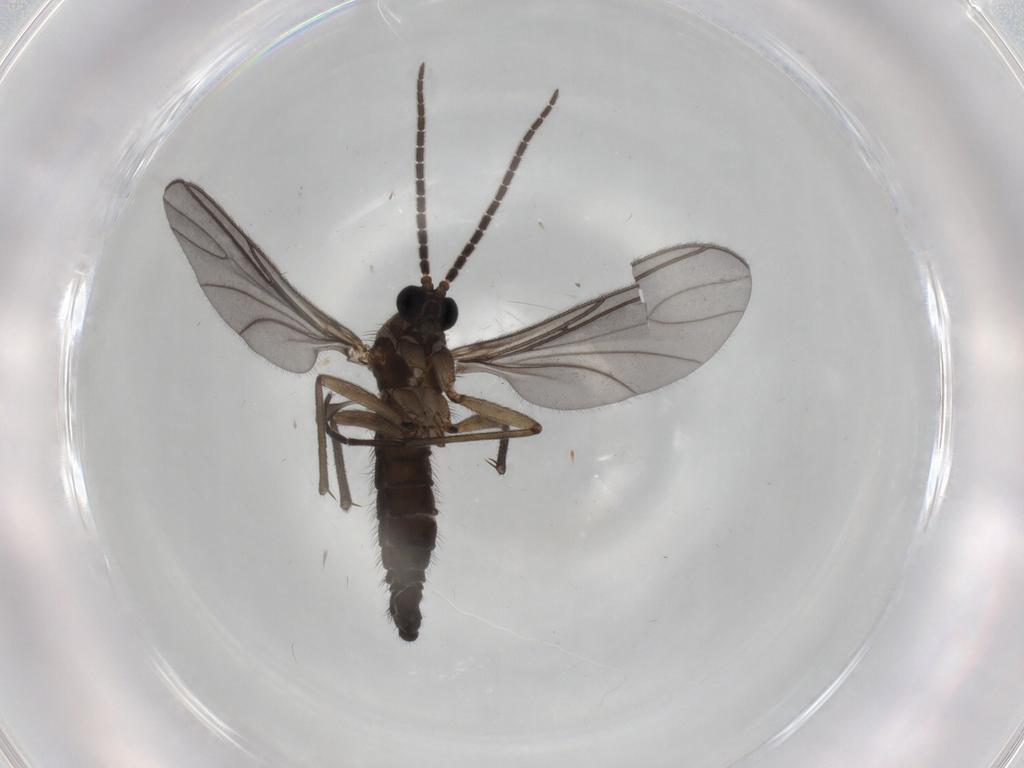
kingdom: Animalia
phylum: Arthropoda
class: Insecta
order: Diptera
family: Sciaridae
